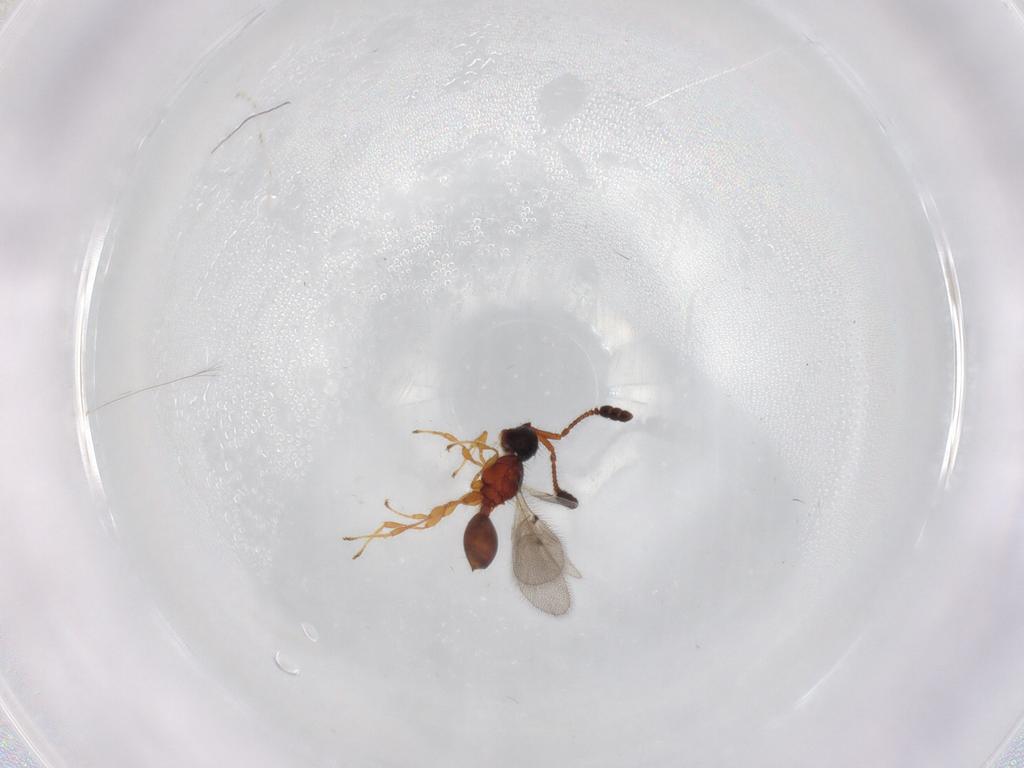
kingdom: Animalia
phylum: Arthropoda
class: Insecta
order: Hymenoptera
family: Diapriidae
